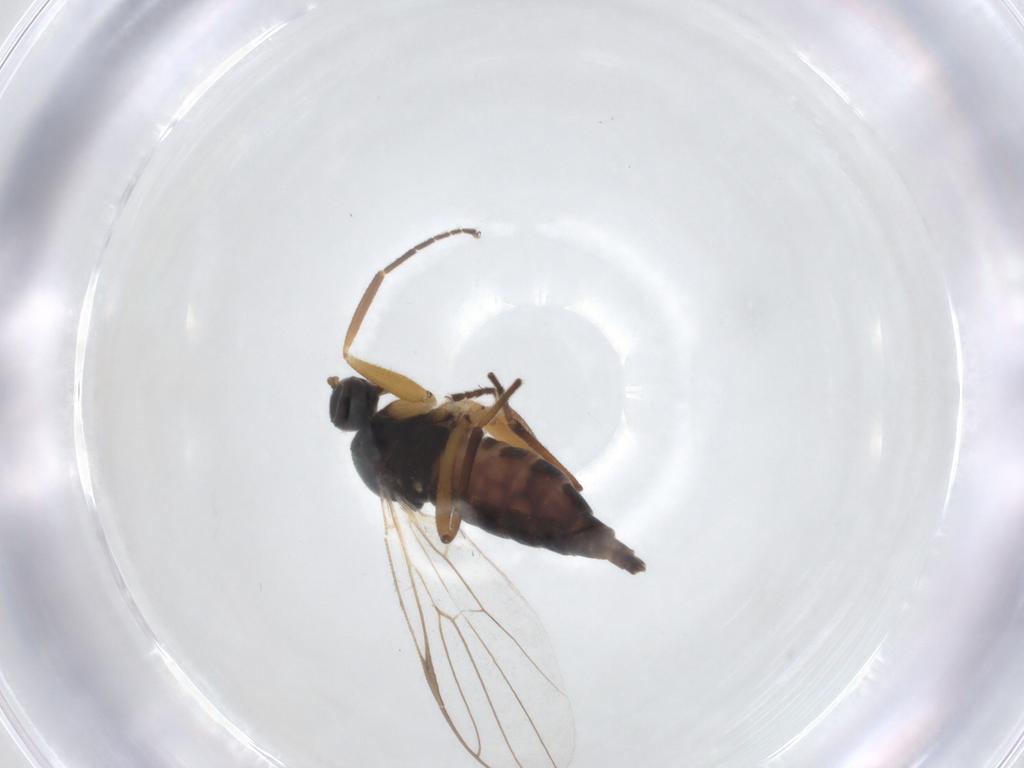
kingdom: Animalia
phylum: Arthropoda
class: Insecta
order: Diptera
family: Hybotidae
